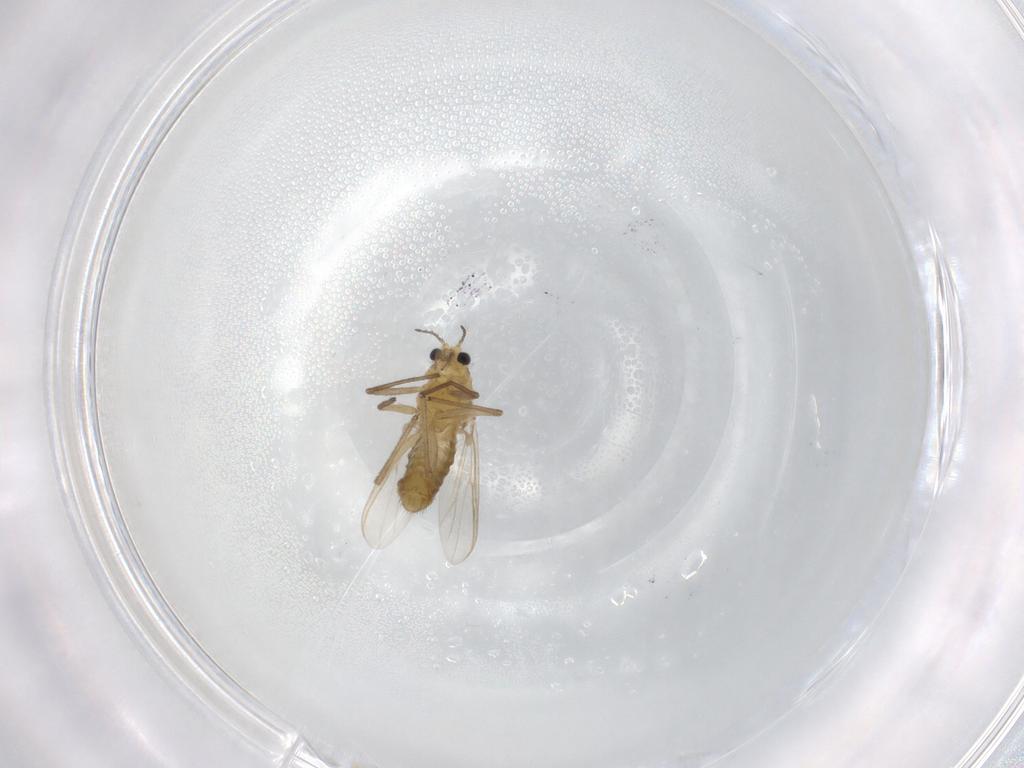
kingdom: Animalia
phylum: Arthropoda
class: Insecta
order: Diptera
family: Chironomidae
